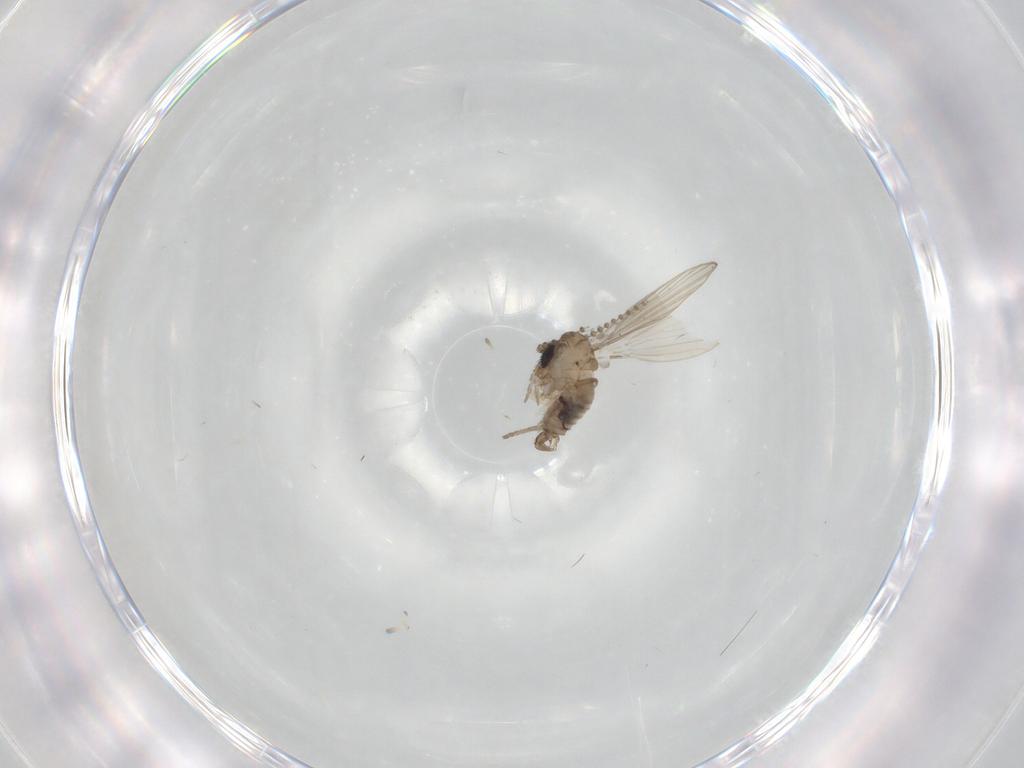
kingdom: Animalia
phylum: Arthropoda
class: Insecta
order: Diptera
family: Psychodidae
